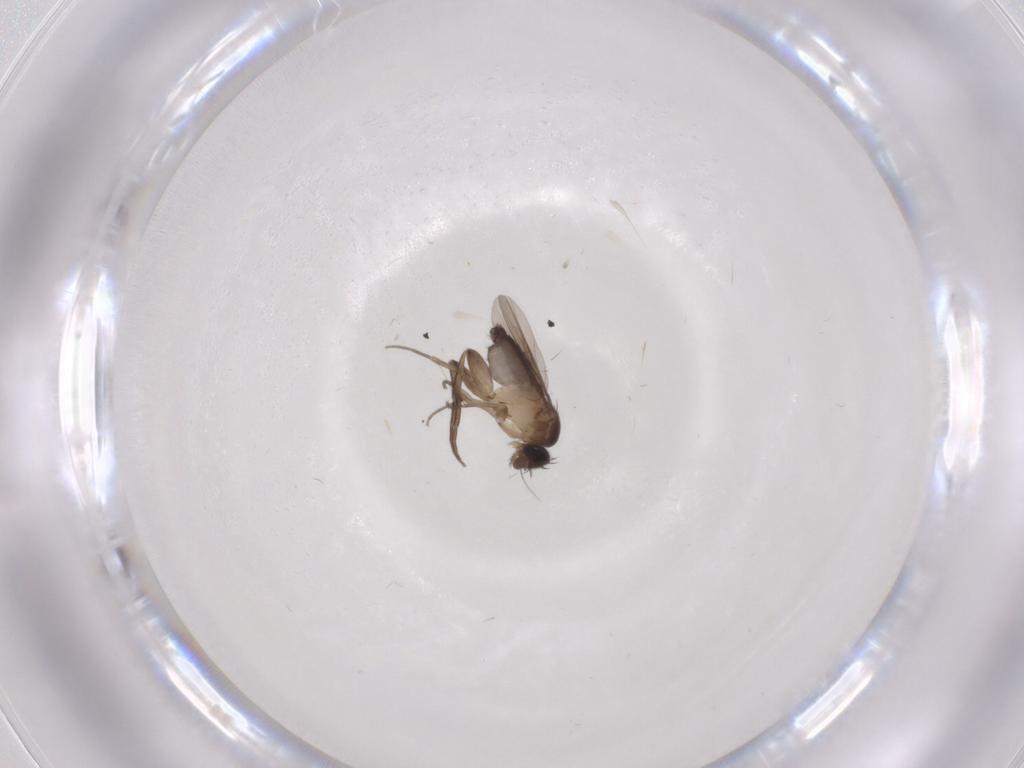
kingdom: Animalia
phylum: Arthropoda
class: Insecta
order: Diptera
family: Phoridae
